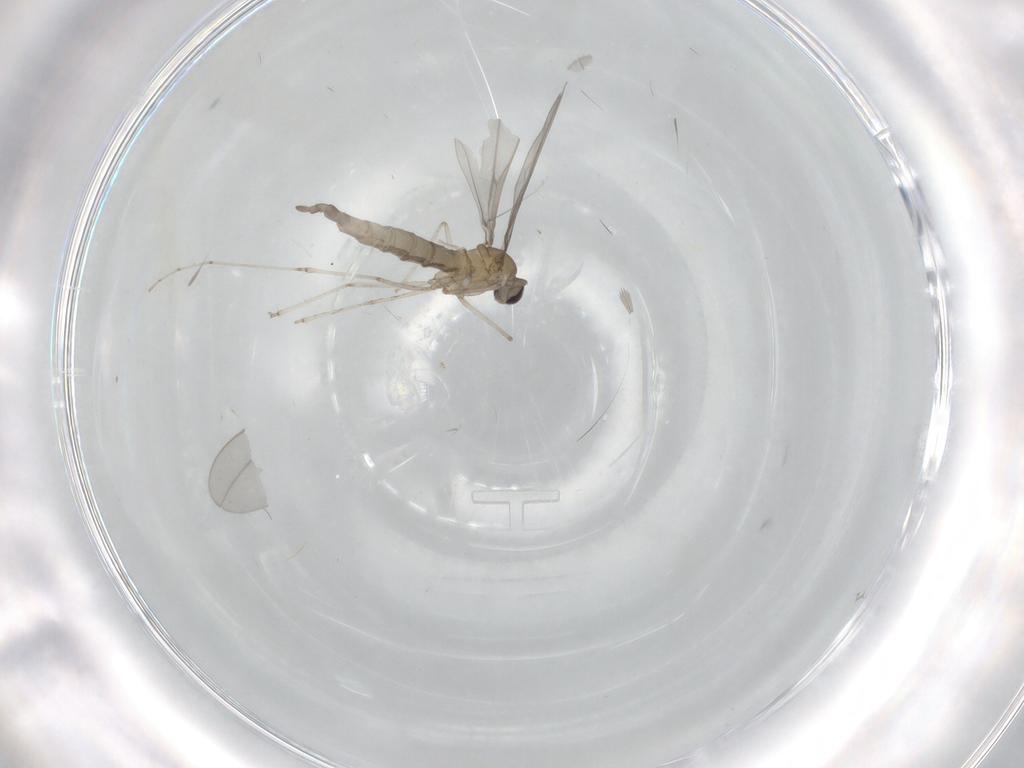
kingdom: Animalia
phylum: Arthropoda
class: Insecta
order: Diptera
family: Cecidomyiidae
